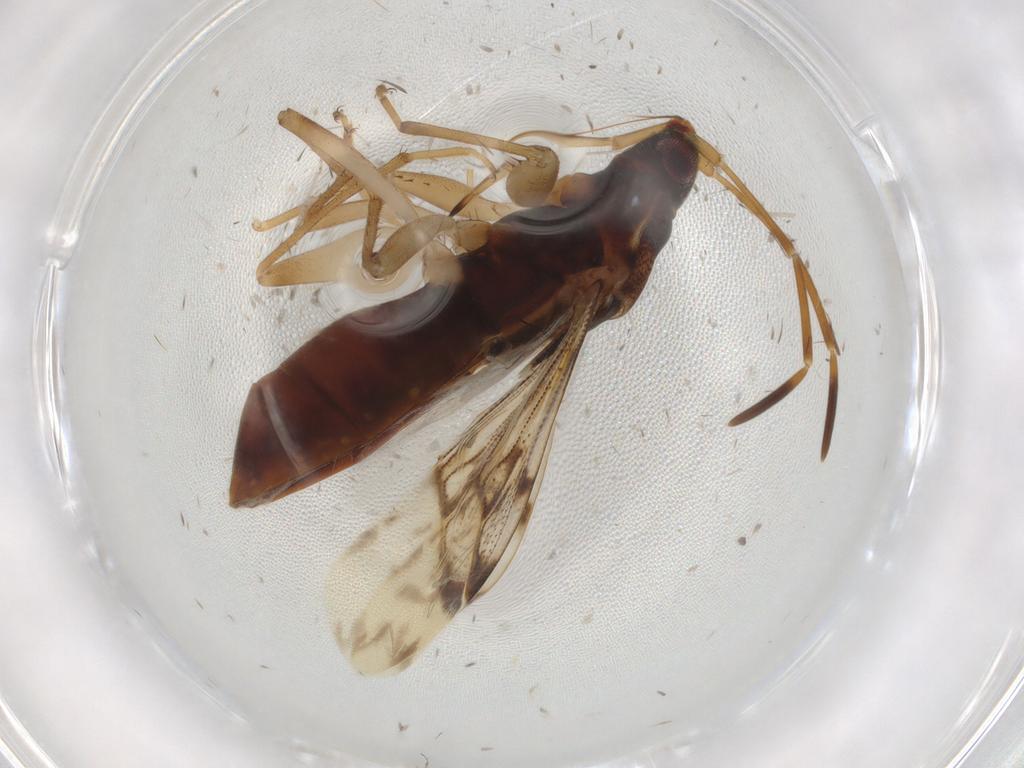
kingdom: Animalia
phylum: Arthropoda
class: Insecta
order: Hemiptera
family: Rhyparochromidae
